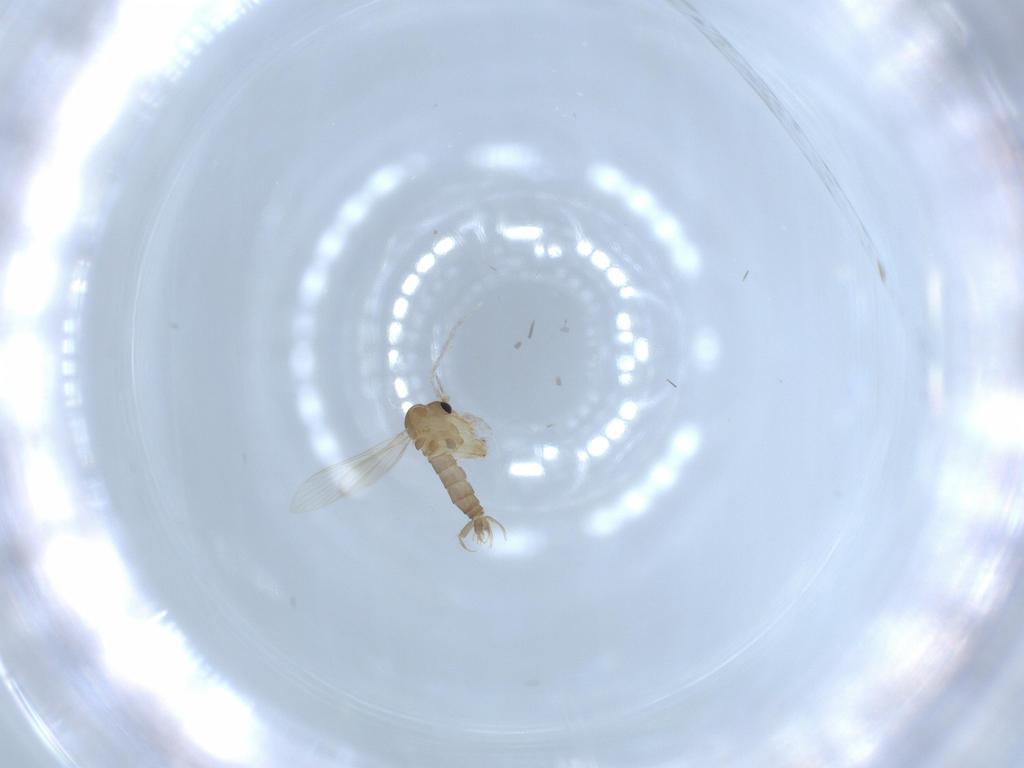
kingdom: Animalia
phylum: Arthropoda
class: Insecta
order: Diptera
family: Psychodidae
